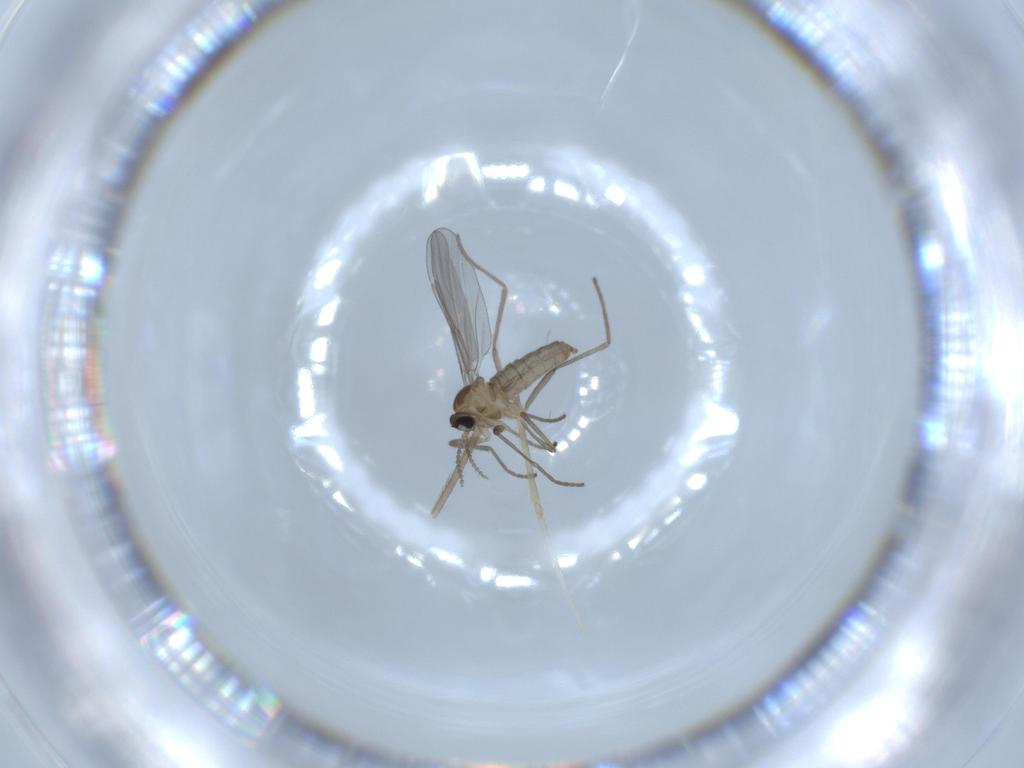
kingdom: Animalia
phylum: Arthropoda
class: Insecta
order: Diptera
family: Cecidomyiidae
